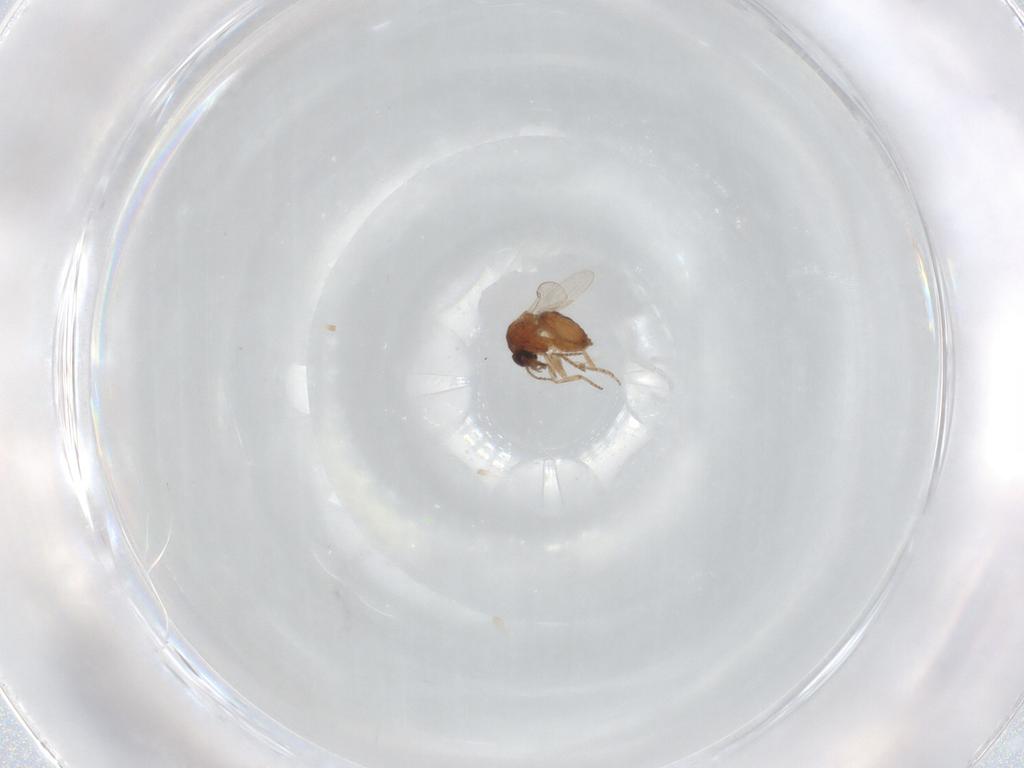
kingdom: Animalia
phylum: Arthropoda
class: Insecta
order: Diptera
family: Ceratopogonidae
